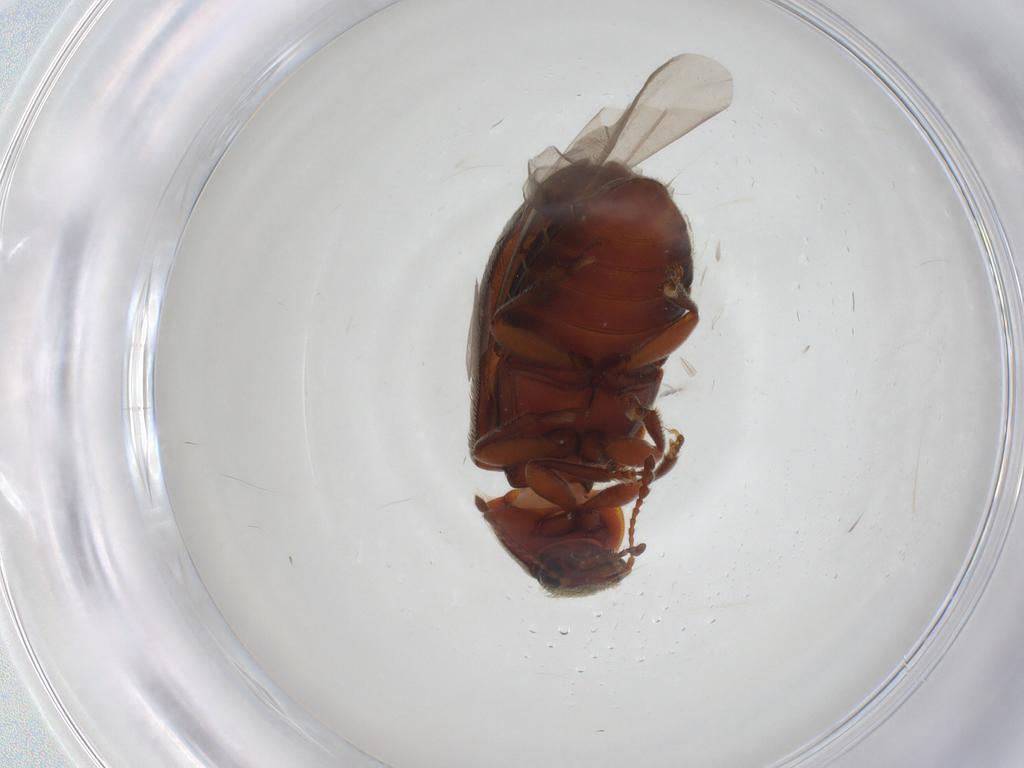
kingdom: Animalia
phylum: Arthropoda
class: Insecta
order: Coleoptera
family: Byturidae
